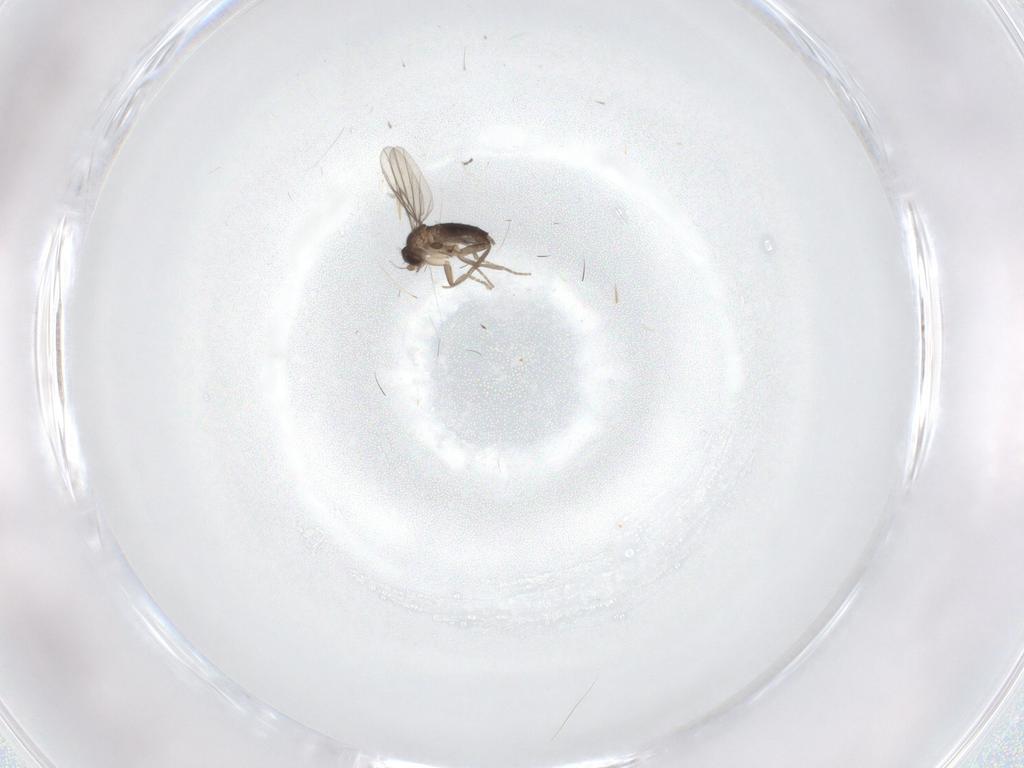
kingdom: Animalia
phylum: Arthropoda
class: Insecta
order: Diptera
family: Cecidomyiidae
